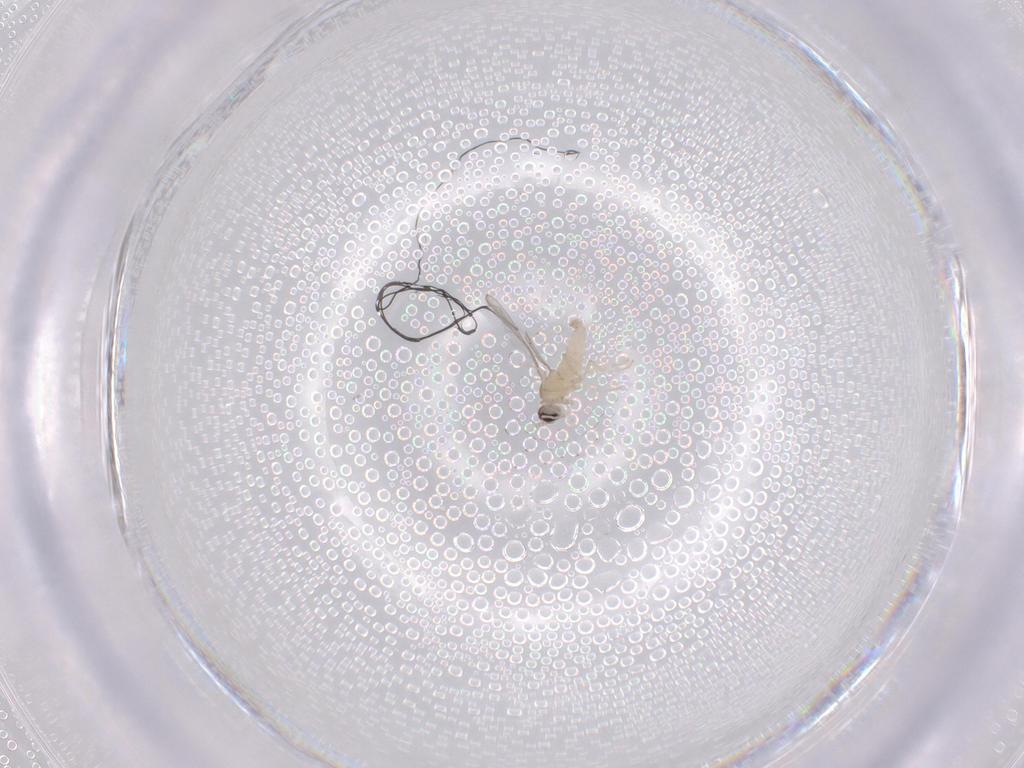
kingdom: Animalia
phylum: Arthropoda
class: Insecta
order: Diptera
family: Cecidomyiidae
